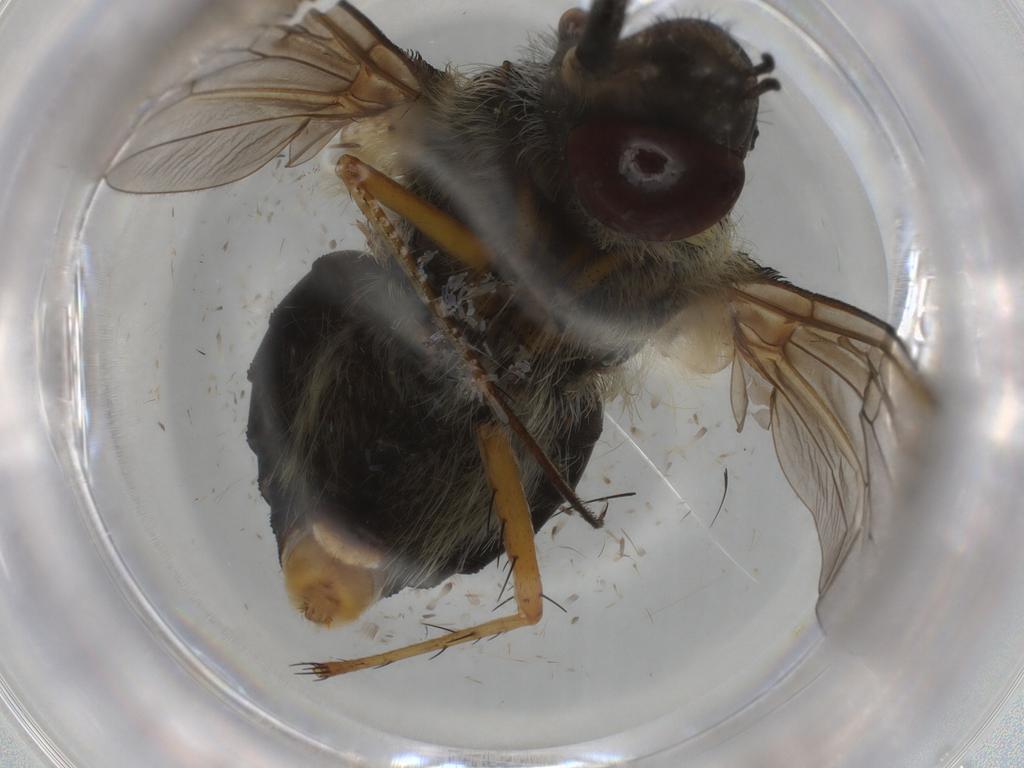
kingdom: Animalia
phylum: Arthropoda
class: Insecta
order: Diptera
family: Bombyliidae
